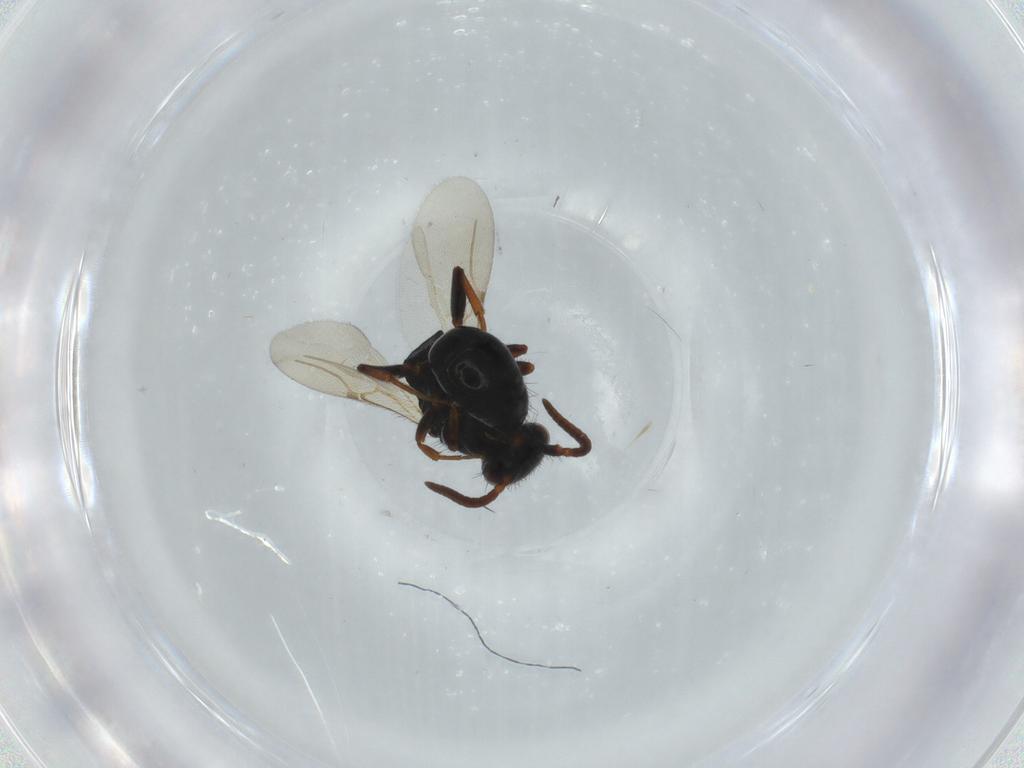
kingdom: Animalia
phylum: Arthropoda
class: Insecta
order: Hymenoptera
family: Bethylidae
